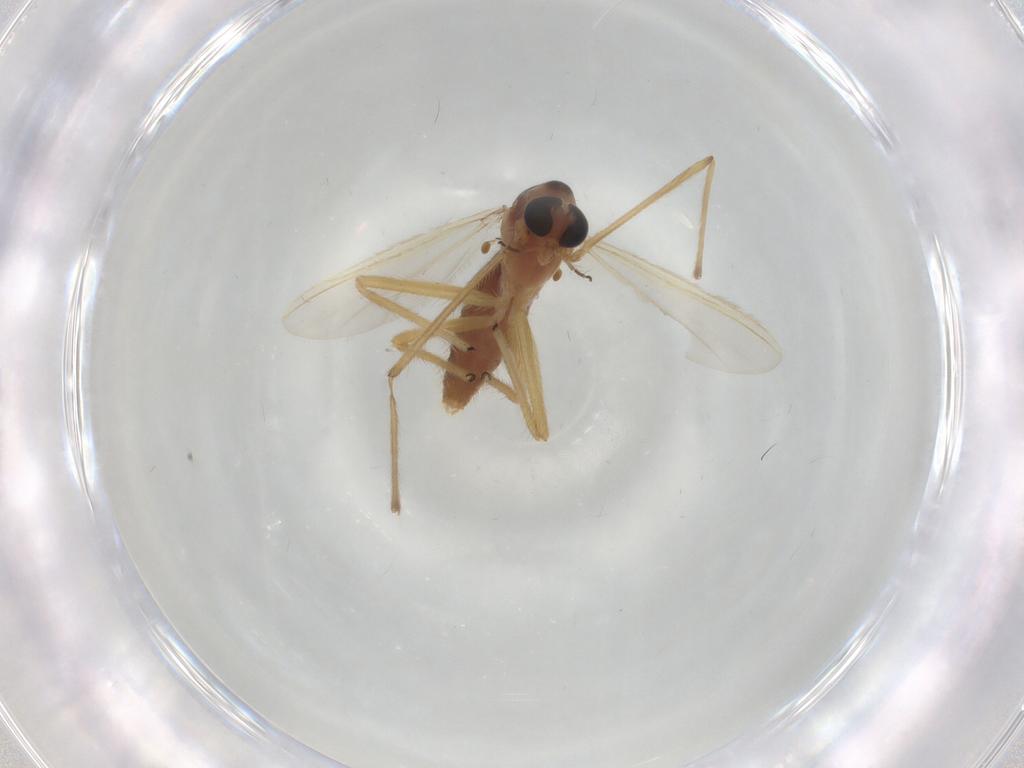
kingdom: Animalia
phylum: Arthropoda
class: Insecta
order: Diptera
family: Chironomidae
